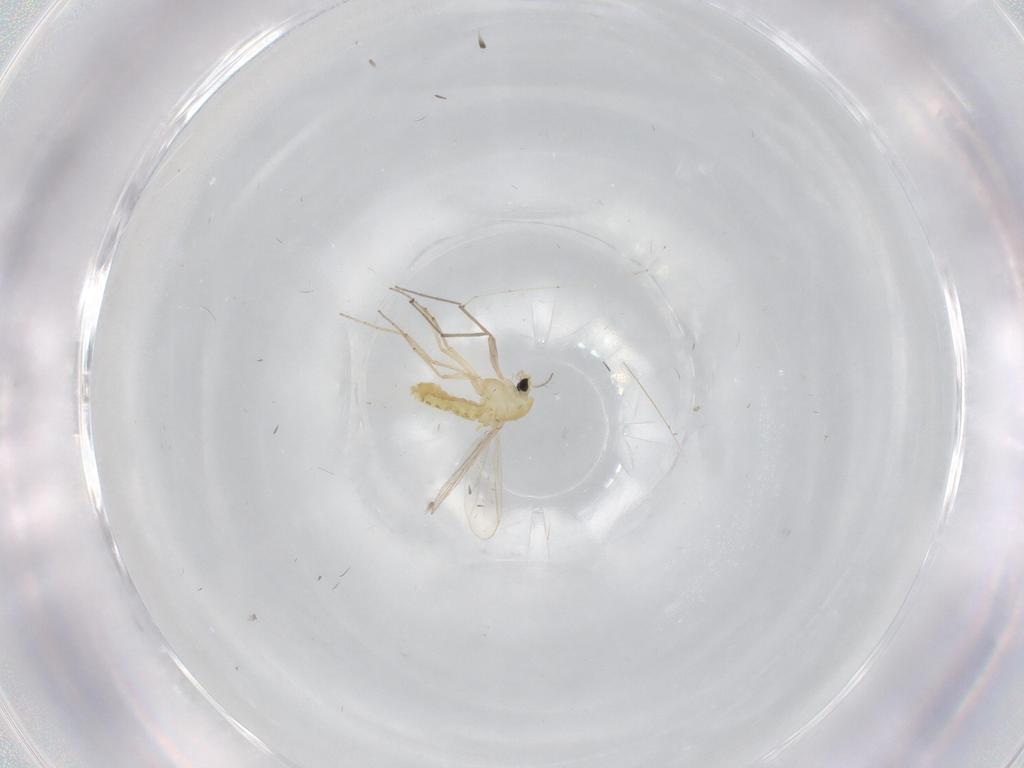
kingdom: Animalia
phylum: Arthropoda
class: Insecta
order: Diptera
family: Chironomidae
